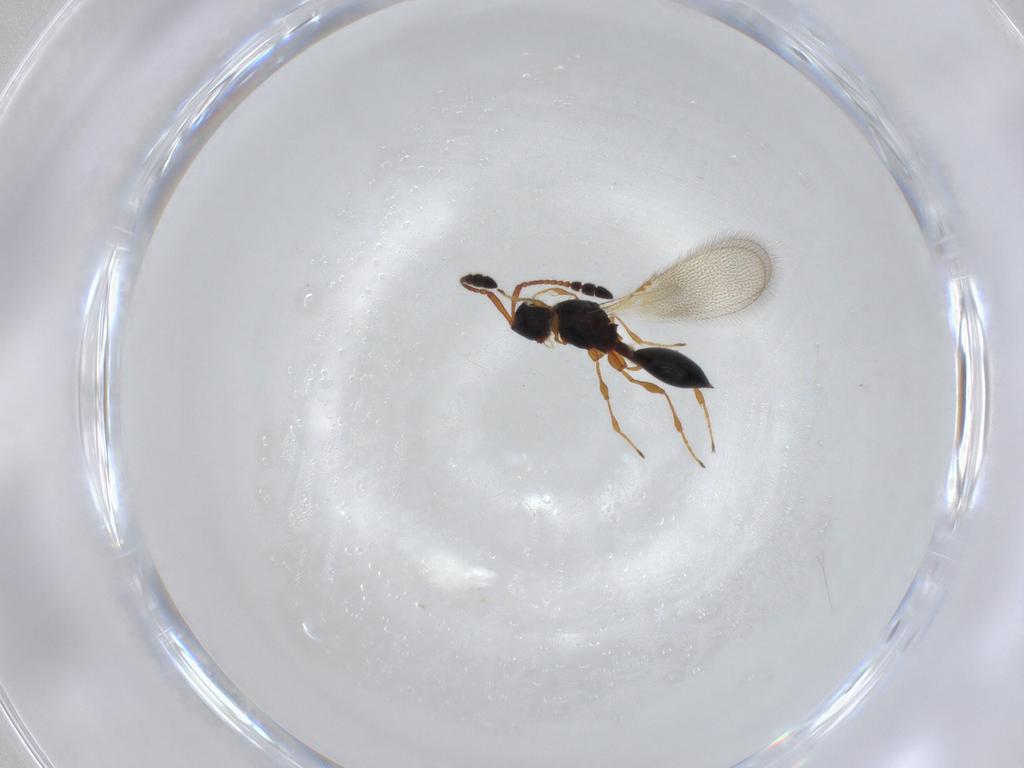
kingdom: Animalia
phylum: Arthropoda
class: Insecta
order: Hymenoptera
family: Diapriidae
